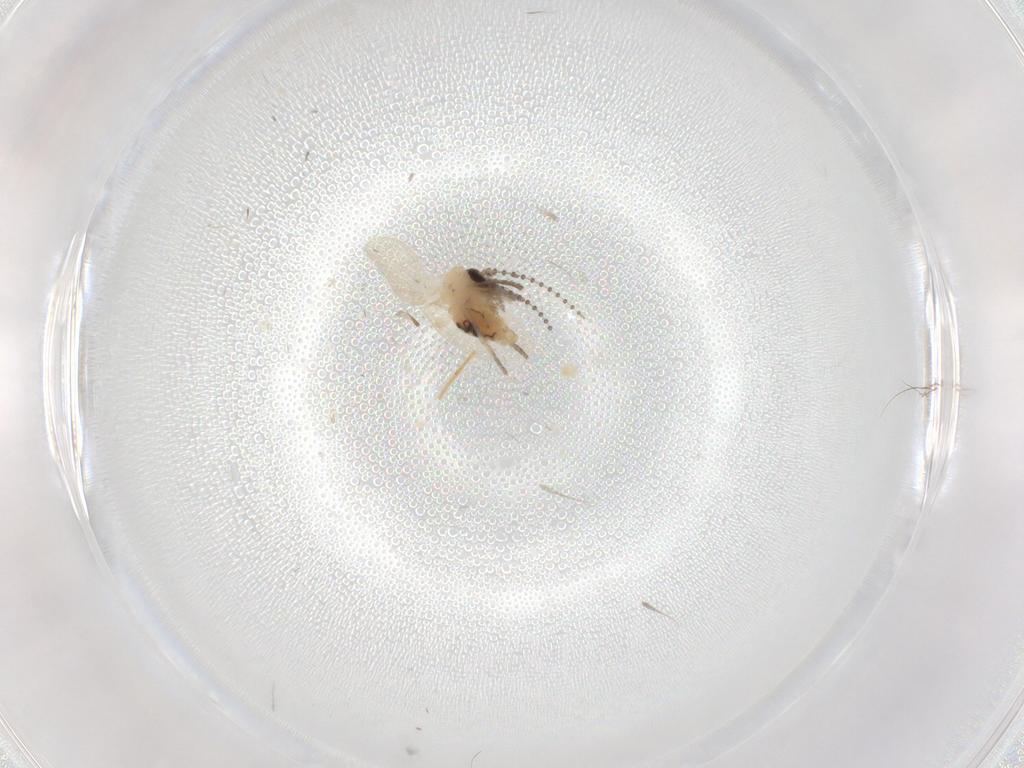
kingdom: Animalia
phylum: Arthropoda
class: Insecta
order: Diptera
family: Psychodidae
